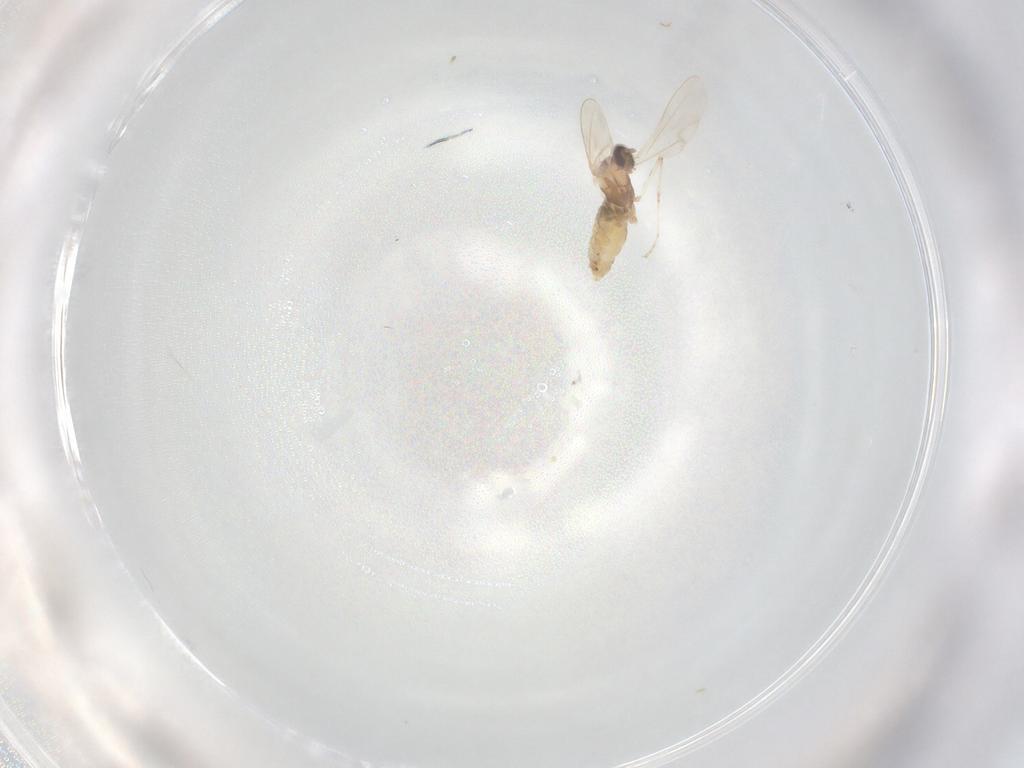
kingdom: Animalia
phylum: Arthropoda
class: Insecta
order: Diptera
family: Cecidomyiidae
